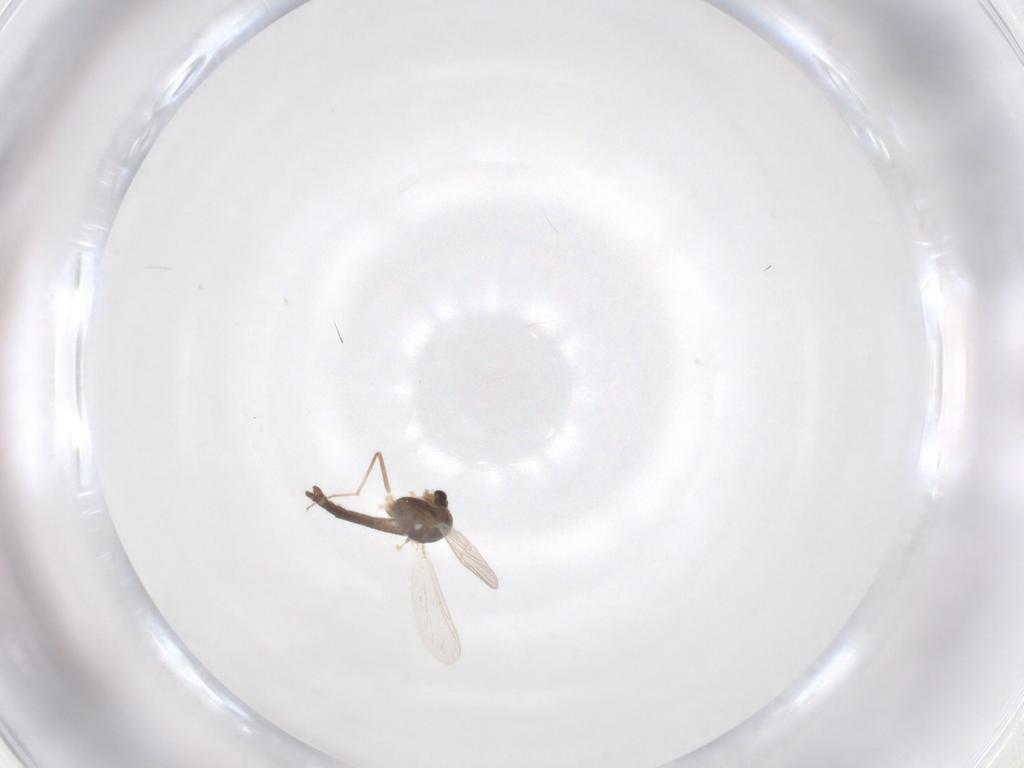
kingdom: Animalia
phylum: Arthropoda
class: Insecta
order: Diptera
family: Chironomidae
